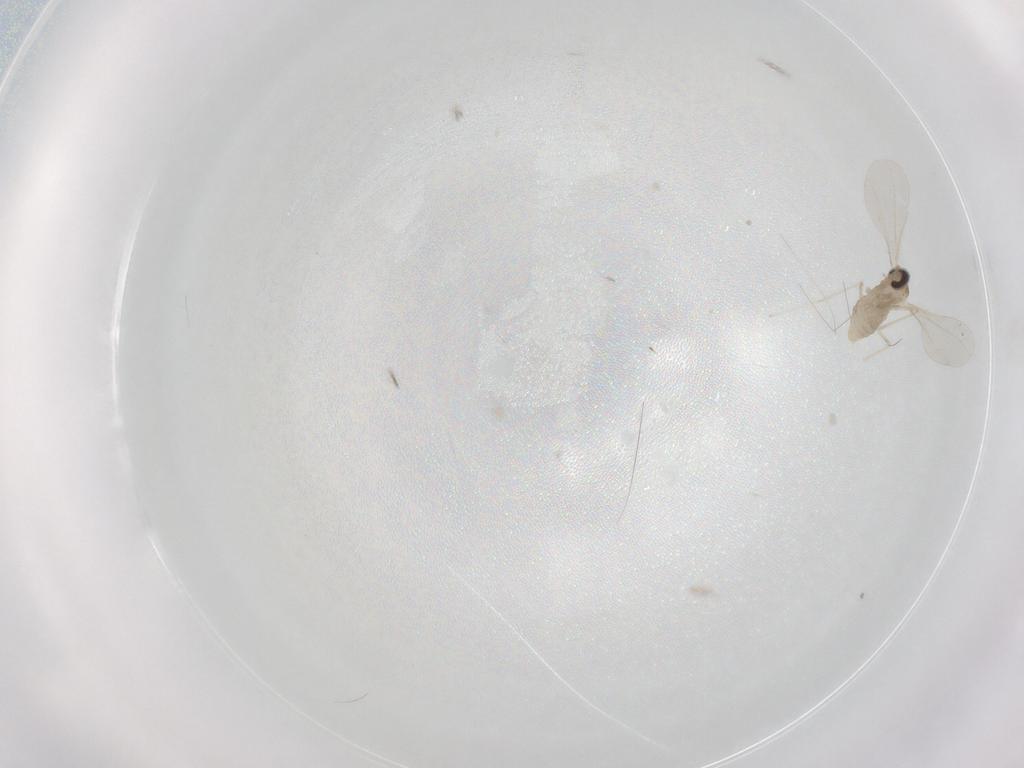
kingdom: Animalia
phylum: Arthropoda
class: Insecta
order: Diptera
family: Cecidomyiidae
